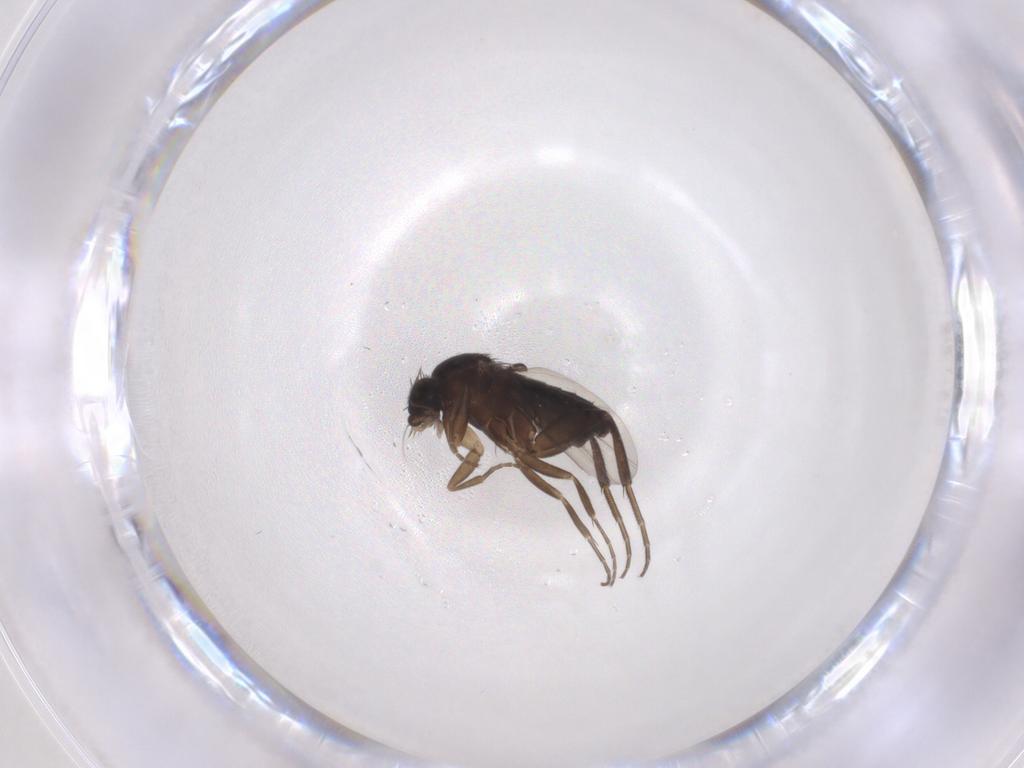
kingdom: Animalia
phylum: Arthropoda
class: Insecta
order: Diptera
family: Phoridae
